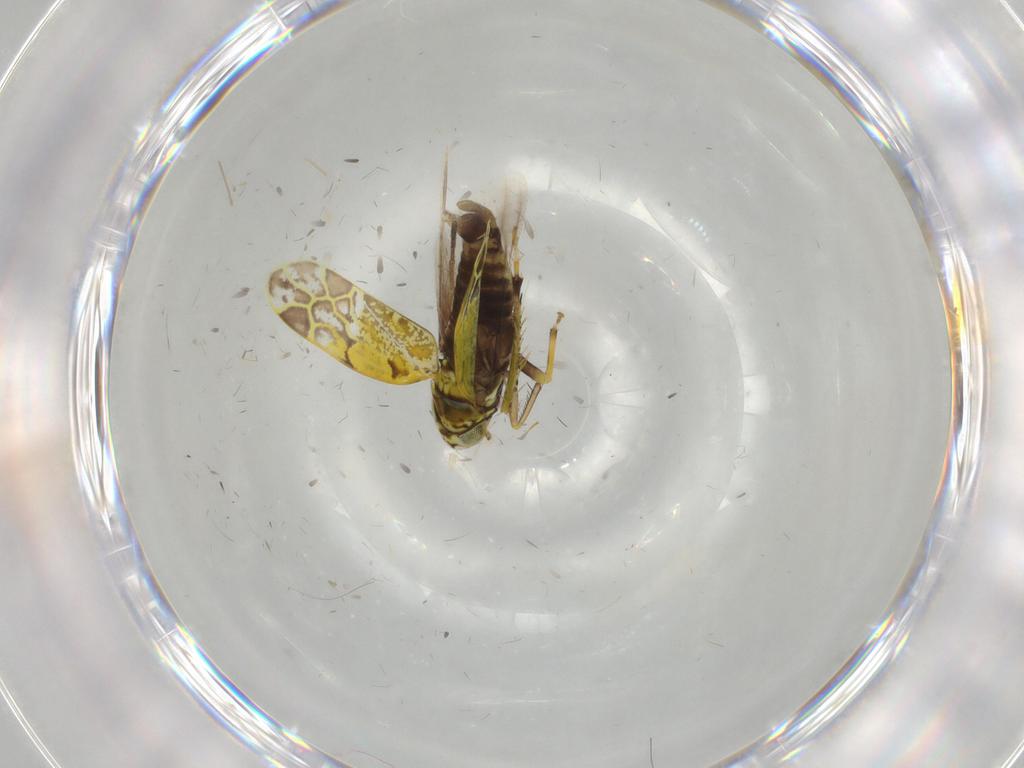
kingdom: Animalia
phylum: Arthropoda
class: Insecta
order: Hemiptera
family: Cicadellidae
